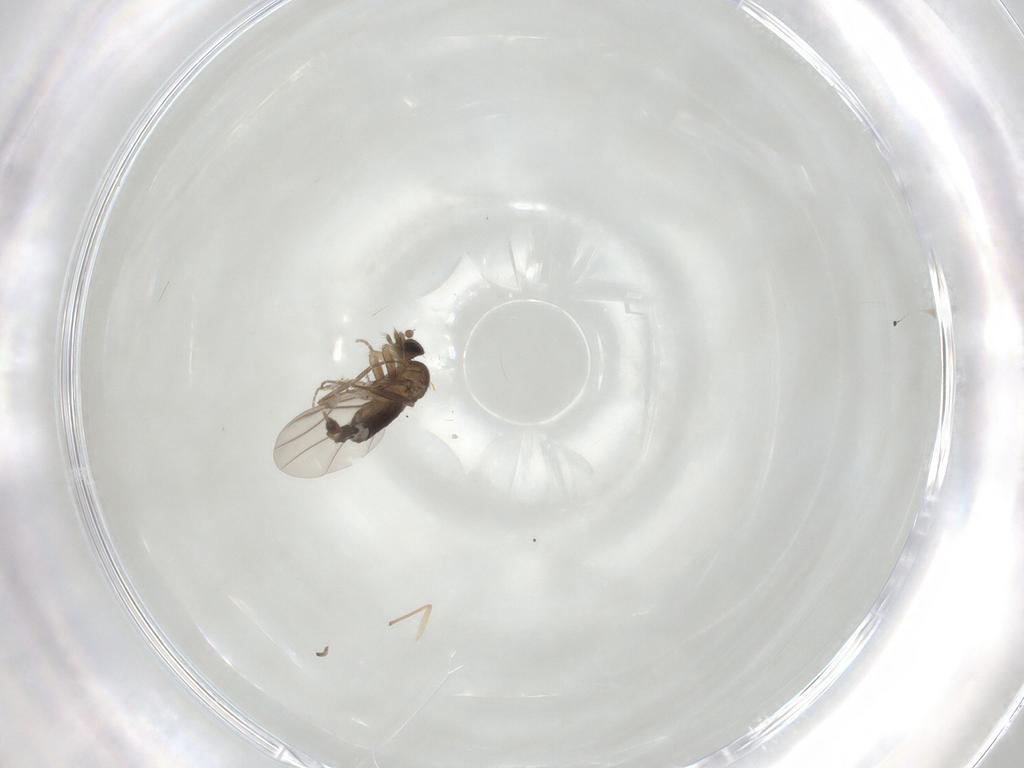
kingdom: Animalia
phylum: Arthropoda
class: Insecta
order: Diptera
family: Phoridae
